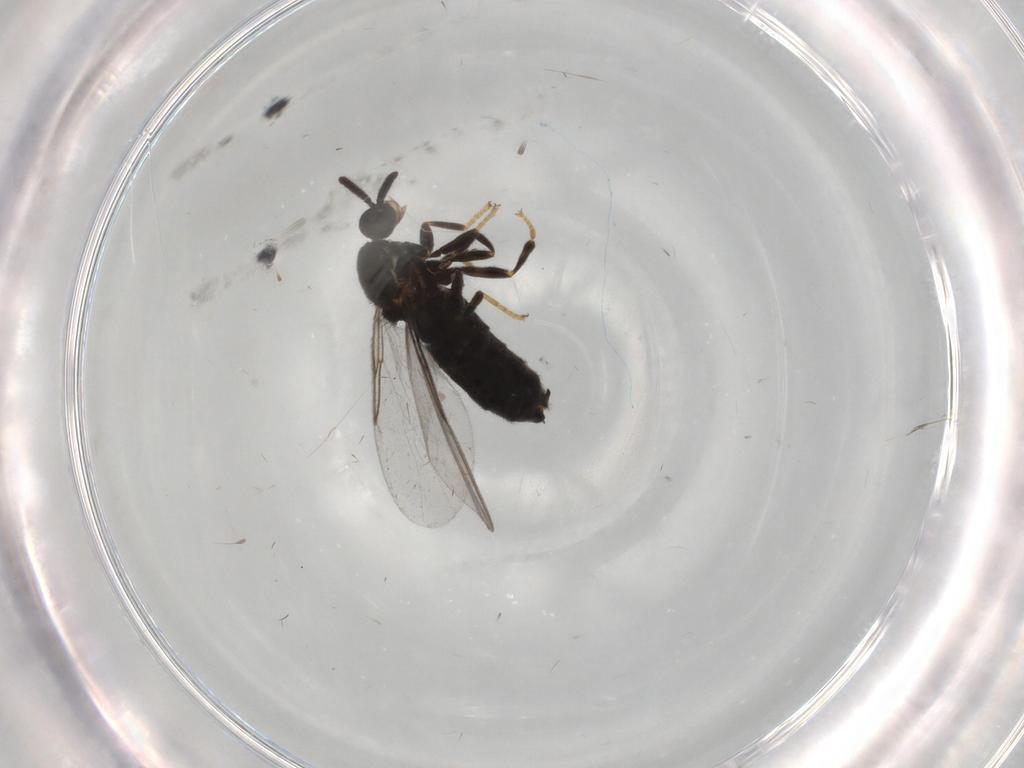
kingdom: Animalia
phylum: Arthropoda
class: Insecta
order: Diptera
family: Scatopsidae
